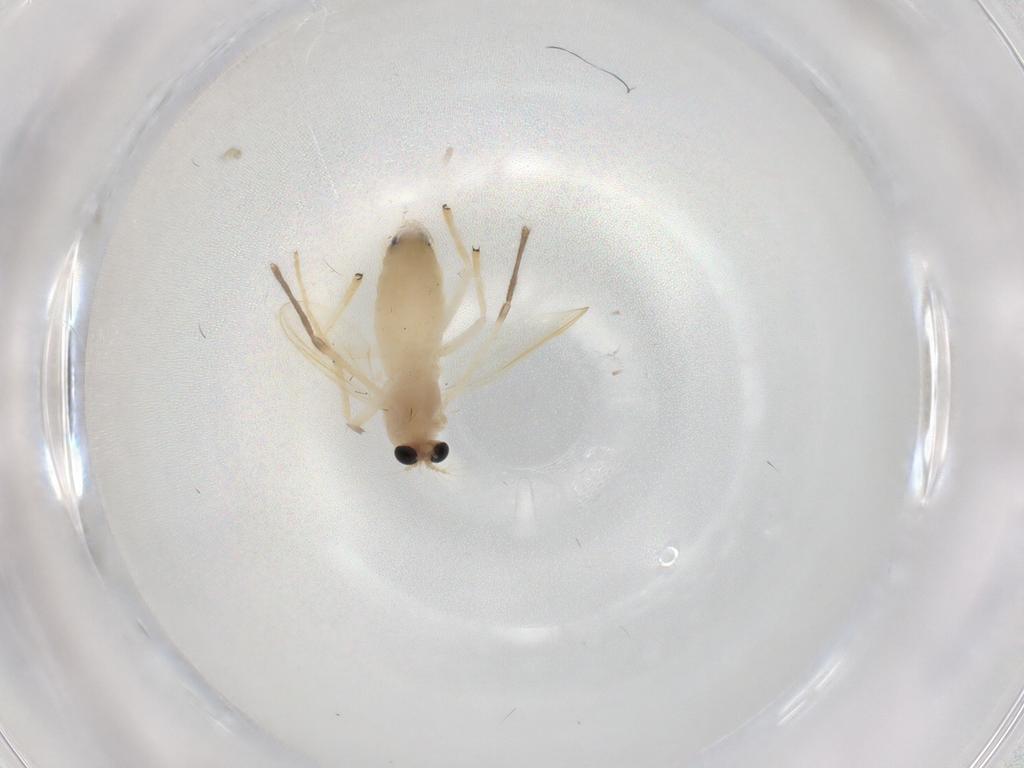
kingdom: Animalia
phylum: Arthropoda
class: Insecta
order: Diptera
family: Chironomidae
